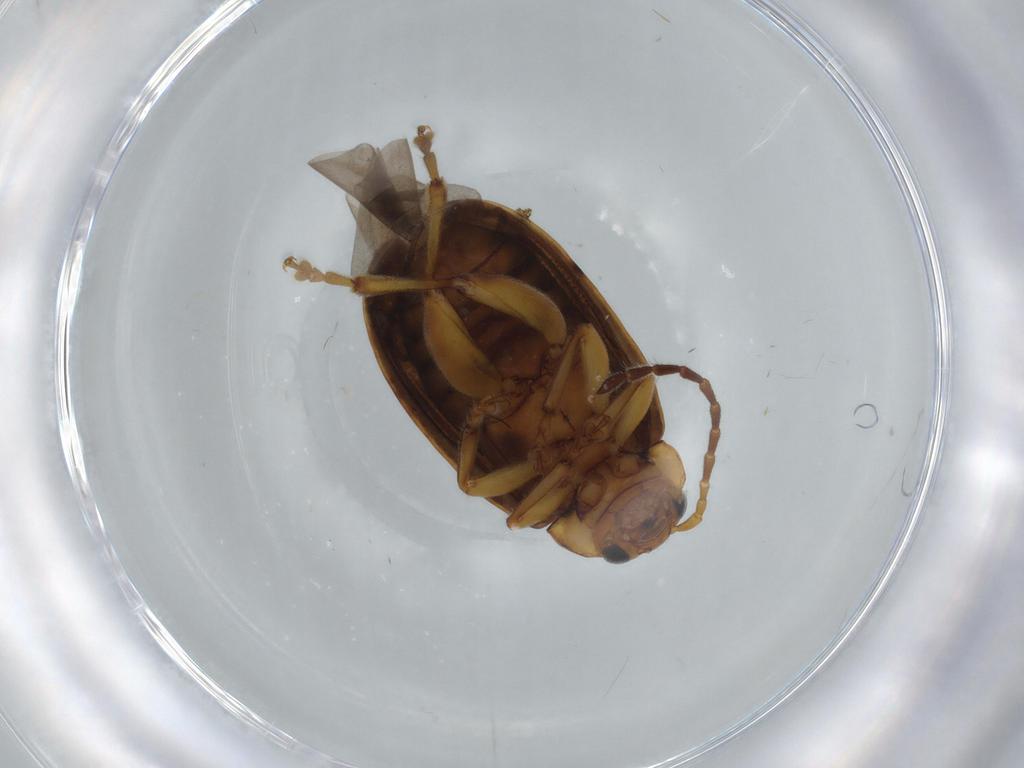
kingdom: Animalia
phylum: Arthropoda
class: Insecta
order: Coleoptera
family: Chrysomelidae
